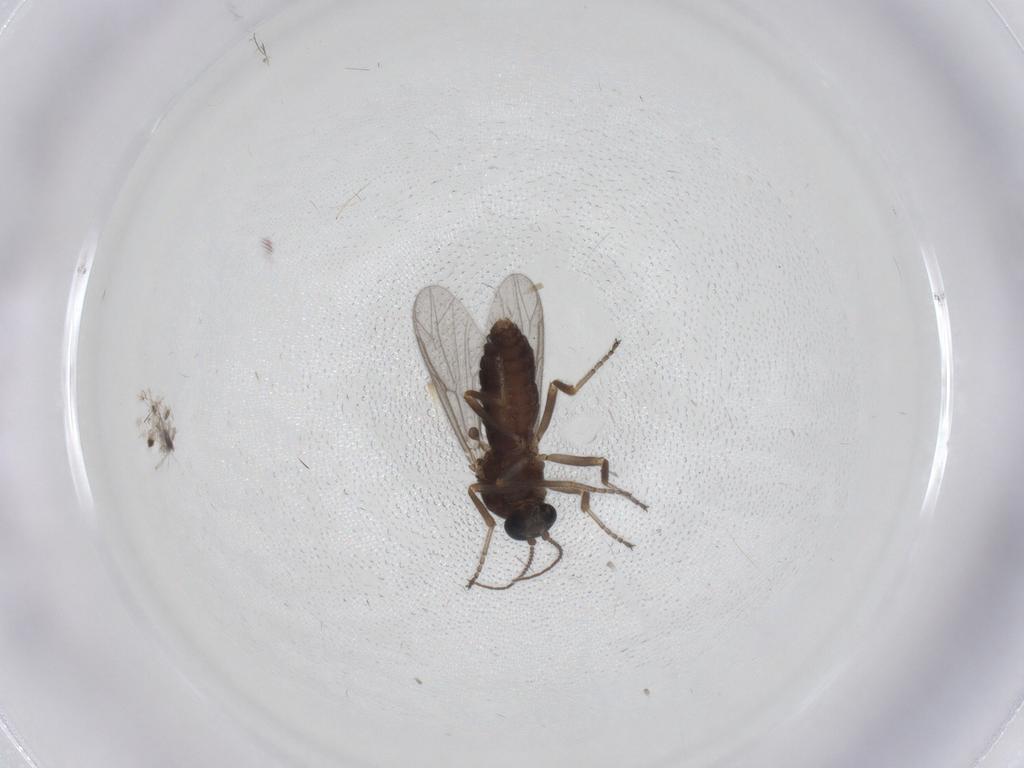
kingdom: Animalia
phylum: Arthropoda
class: Insecta
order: Diptera
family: Ceratopogonidae
